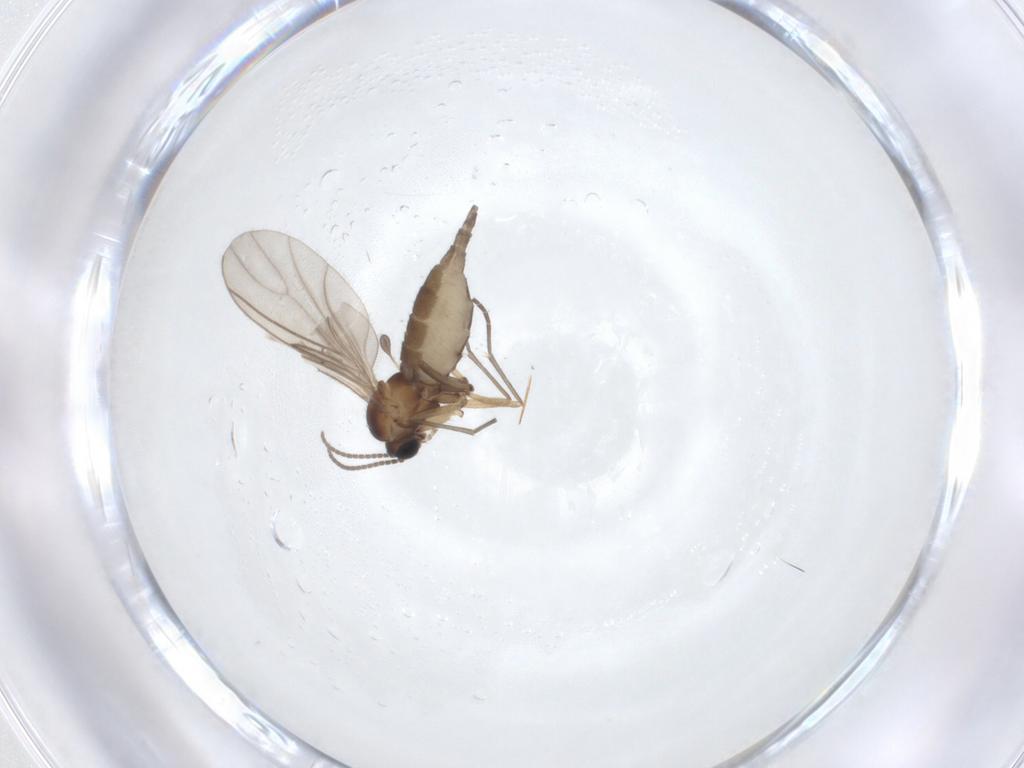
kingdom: Animalia
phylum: Arthropoda
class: Insecta
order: Diptera
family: Sciaridae
